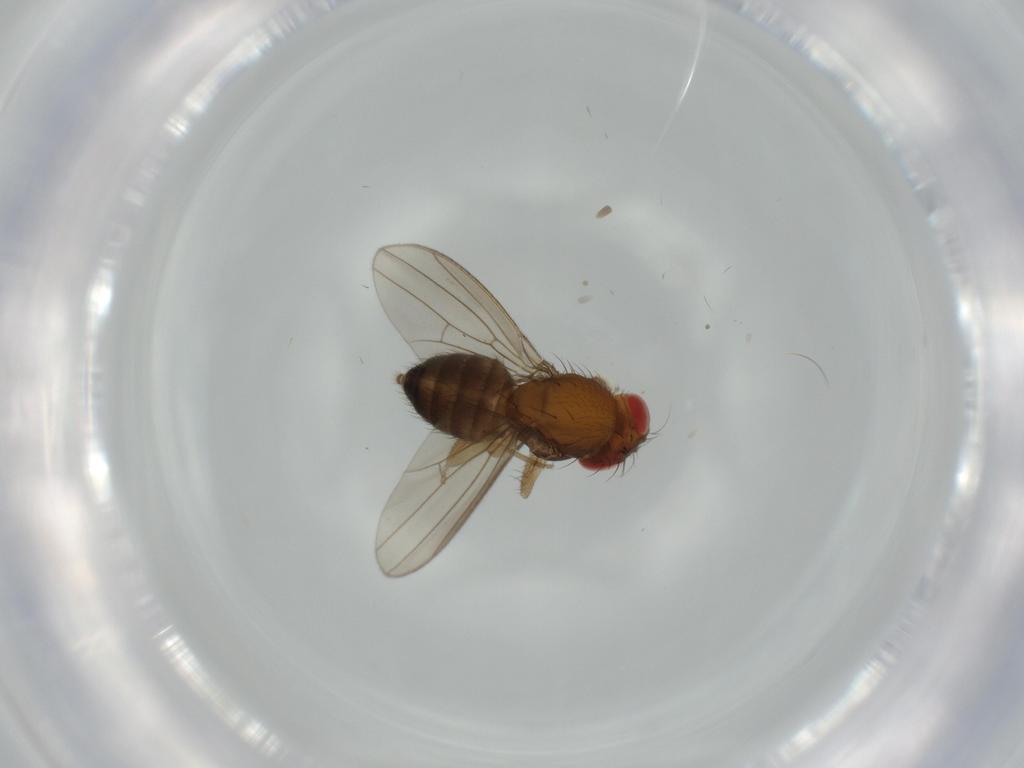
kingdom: Animalia
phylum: Arthropoda
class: Insecta
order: Diptera
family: Drosophilidae
